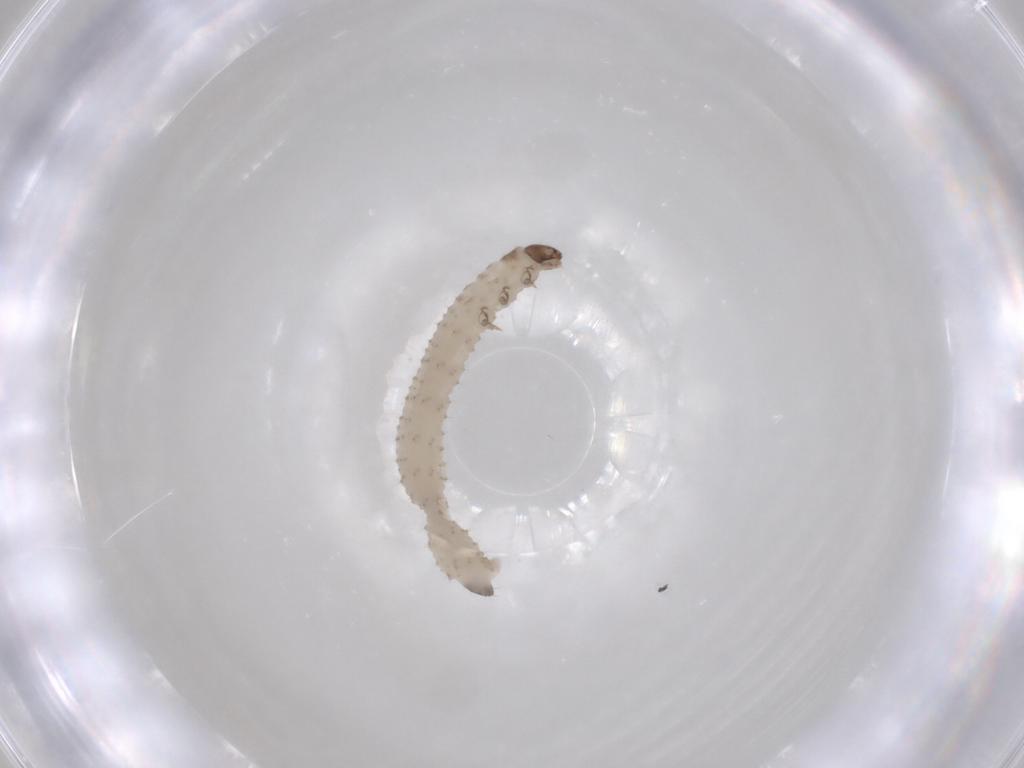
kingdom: Animalia
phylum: Arthropoda
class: Insecta
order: Coleoptera
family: Chrysomelidae
